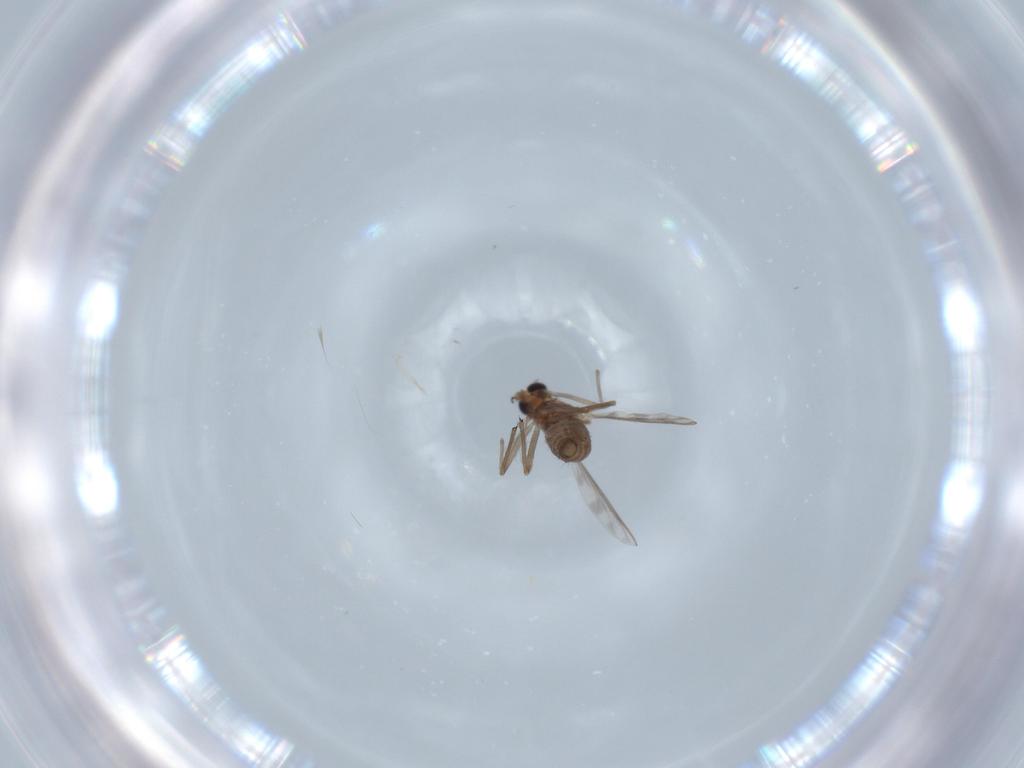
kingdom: Animalia
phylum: Arthropoda
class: Insecta
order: Diptera
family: Chironomidae
